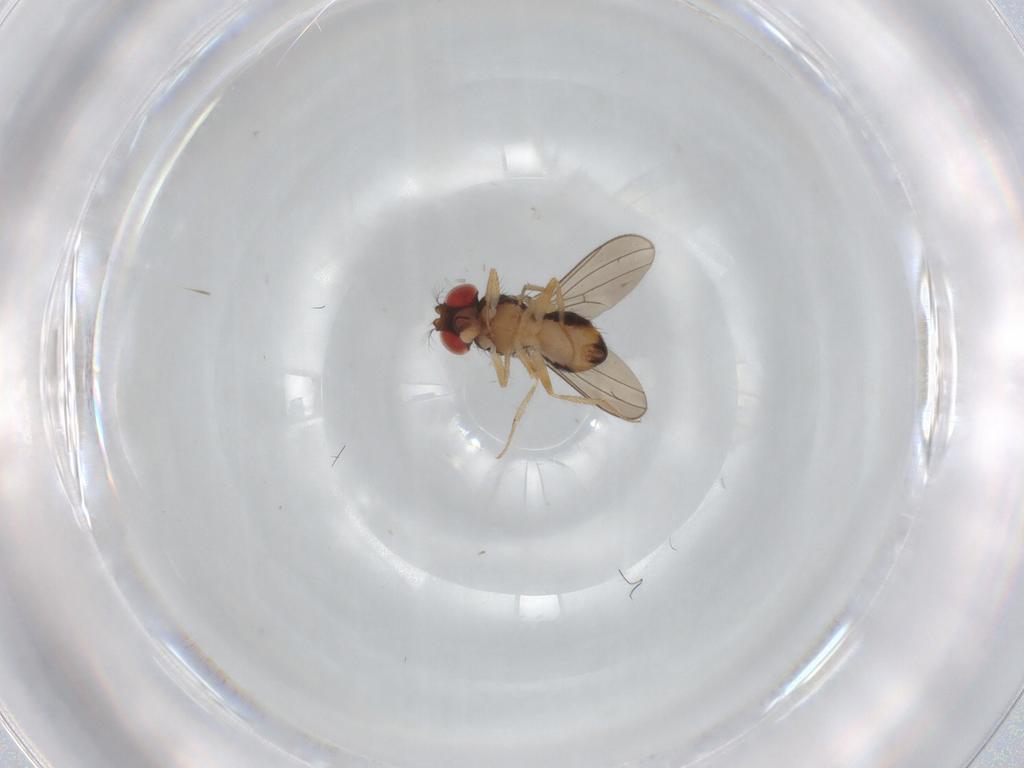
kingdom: Animalia
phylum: Arthropoda
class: Insecta
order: Diptera
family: Drosophilidae
